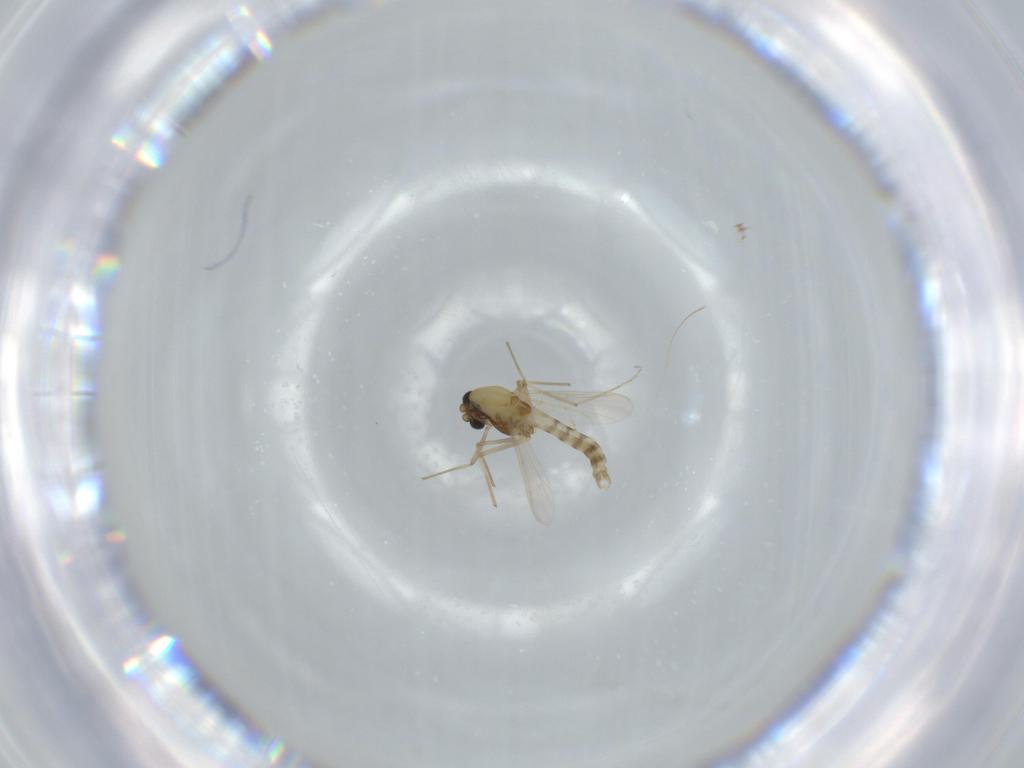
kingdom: Animalia
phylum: Arthropoda
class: Insecta
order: Diptera
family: Chironomidae
